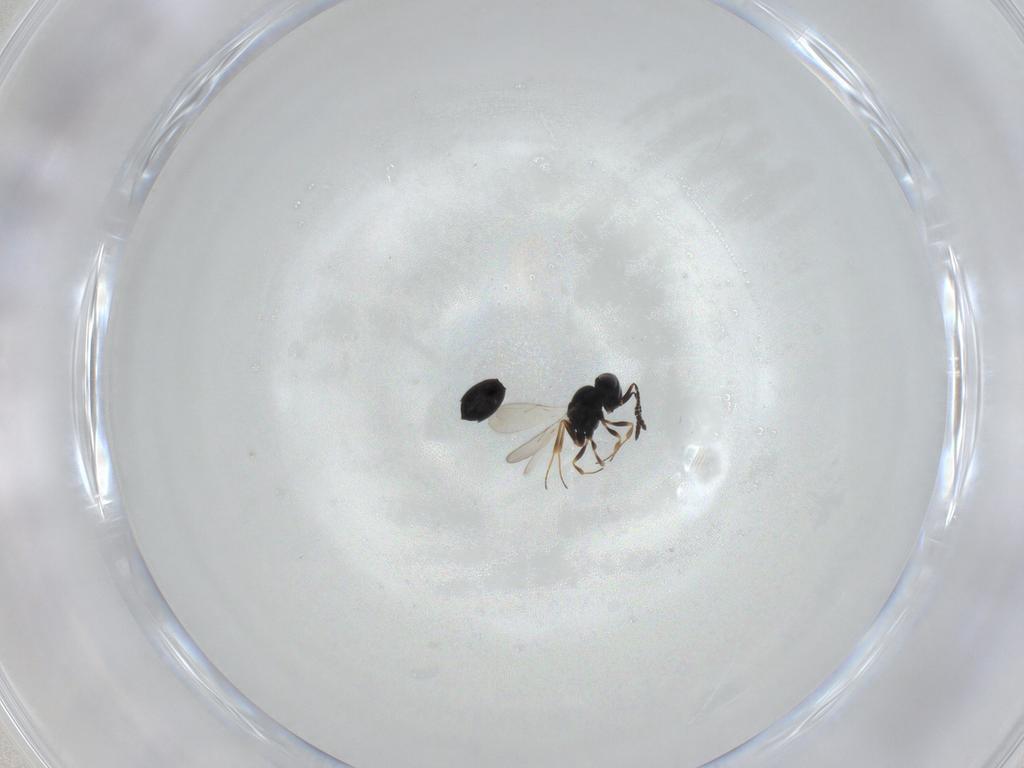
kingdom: Animalia
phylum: Arthropoda
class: Insecta
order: Hymenoptera
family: Scelionidae
